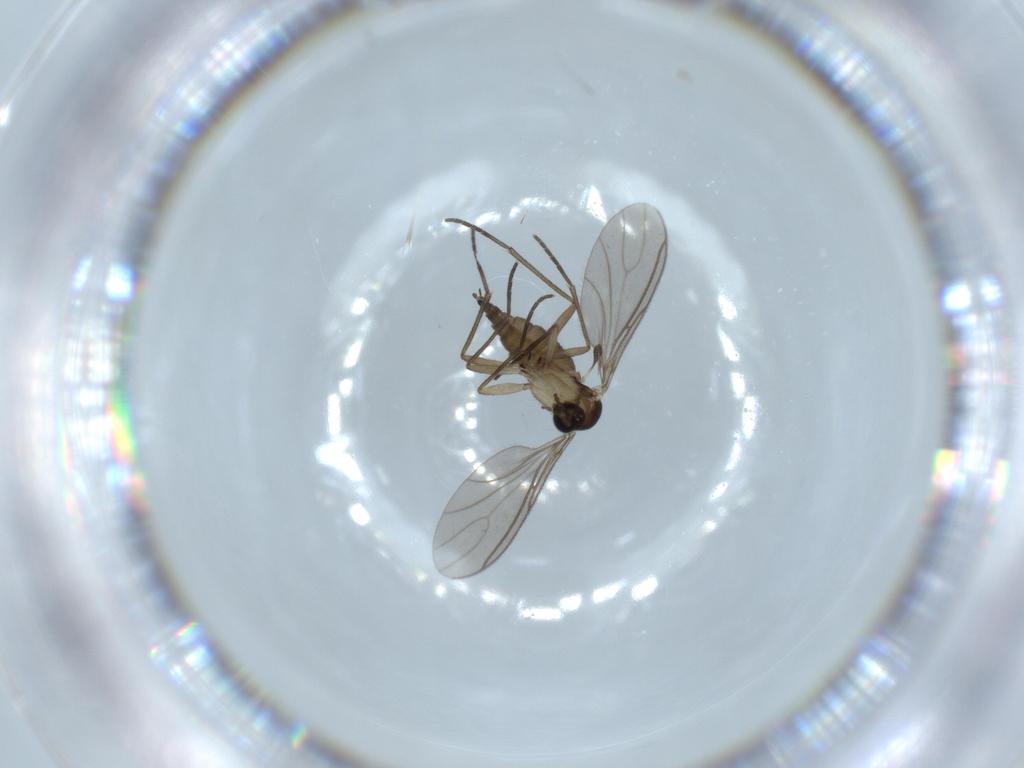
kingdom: Animalia
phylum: Arthropoda
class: Insecta
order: Diptera
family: Sciaridae
